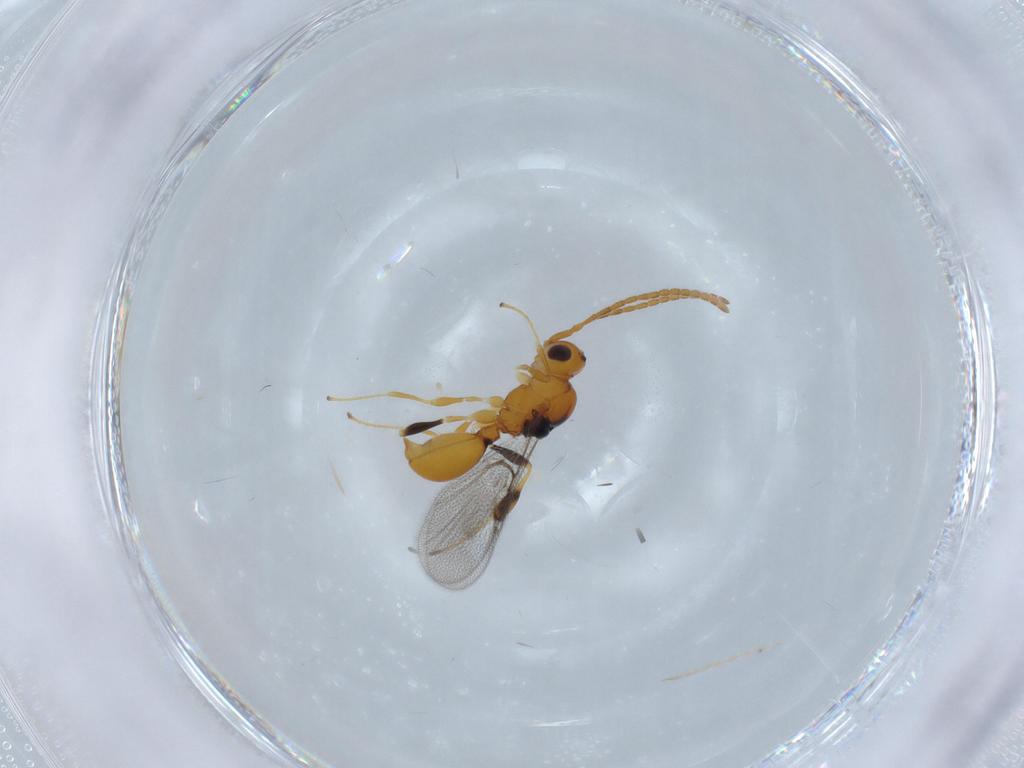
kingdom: Animalia
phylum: Arthropoda
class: Insecta
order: Hymenoptera
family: Diapriidae
